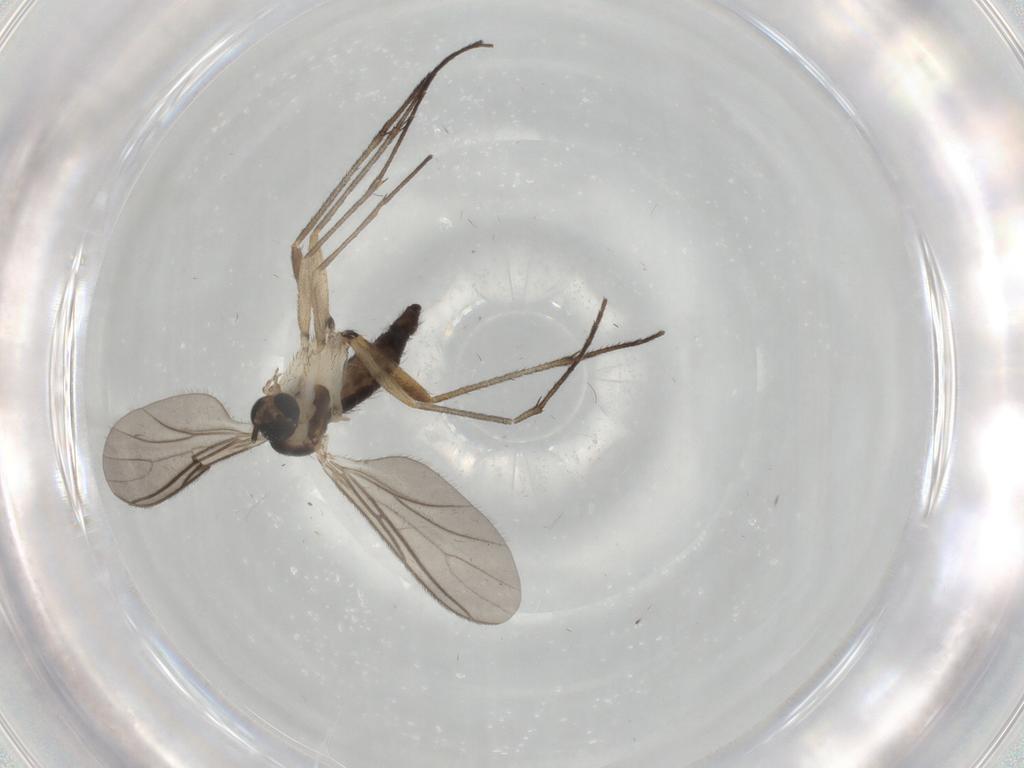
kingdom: Animalia
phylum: Arthropoda
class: Insecta
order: Diptera
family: Sciaridae
